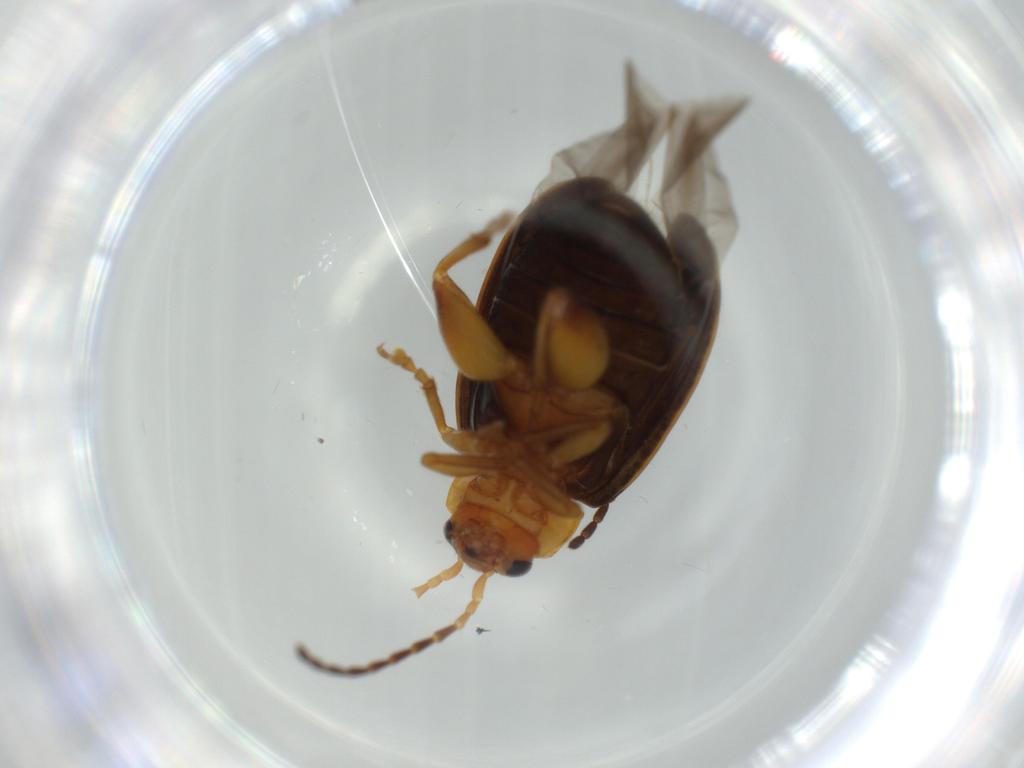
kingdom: Animalia
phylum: Arthropoda
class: Insecta
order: Coleoptera
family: Chrysomelidae
